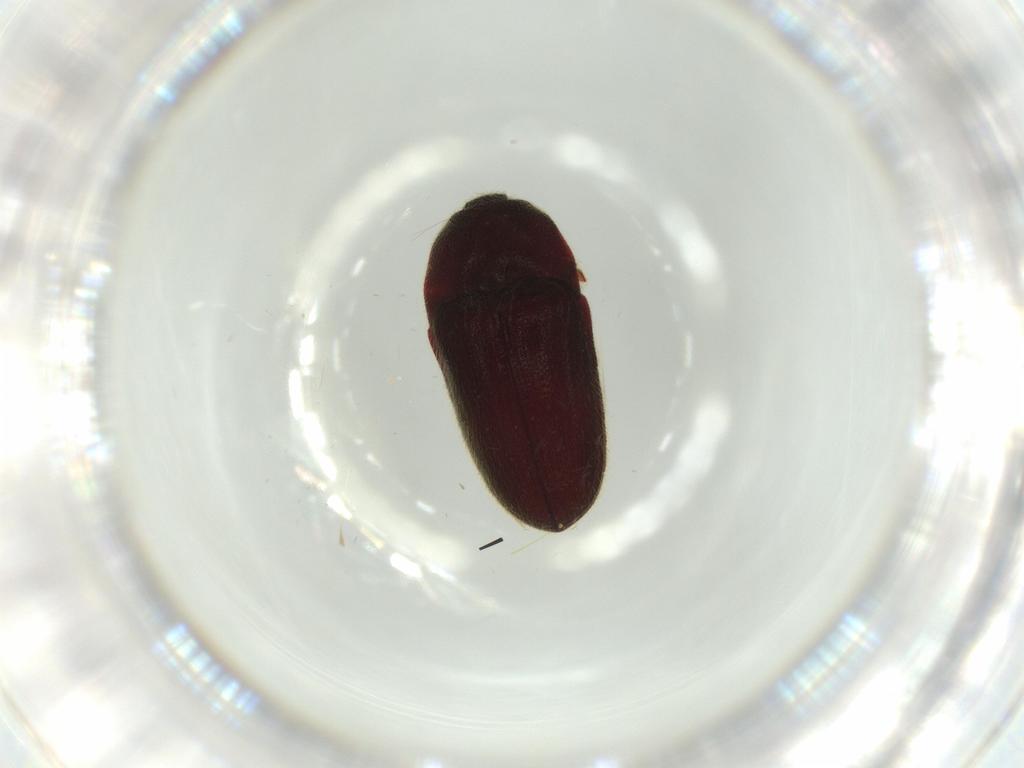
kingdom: Animalia
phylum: Arthropoda
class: Insecta
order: Coleoptera
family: Throscidae
